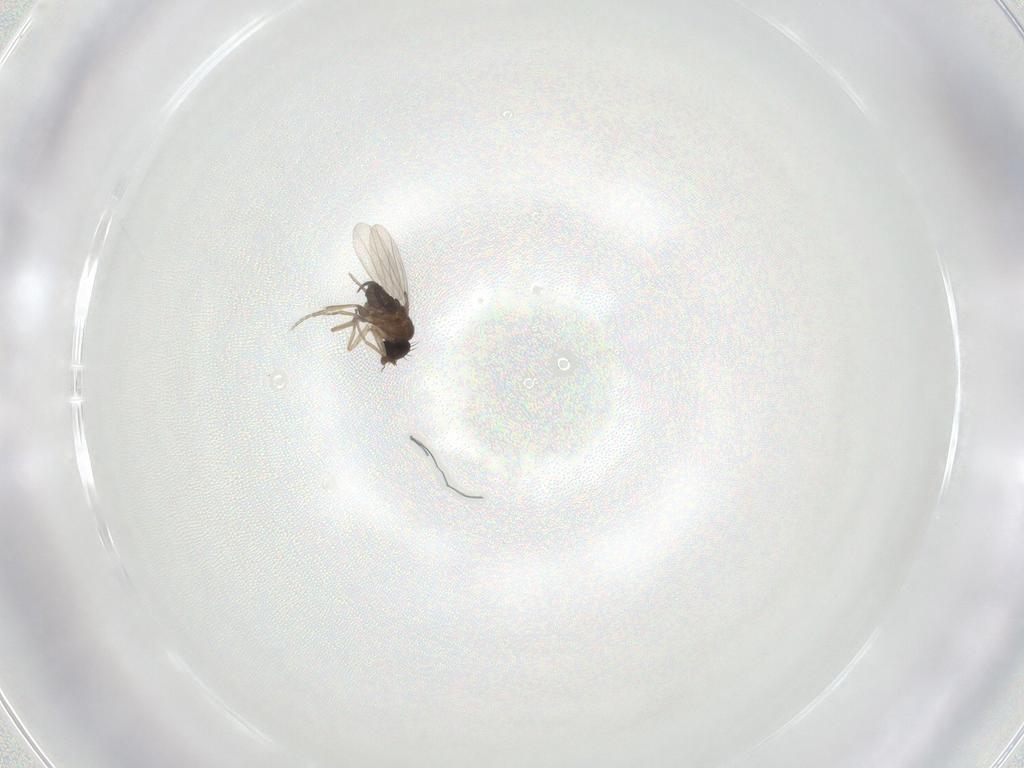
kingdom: Animalia
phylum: Arthropoda
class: Insecta
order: Diptera
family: Phoridae
